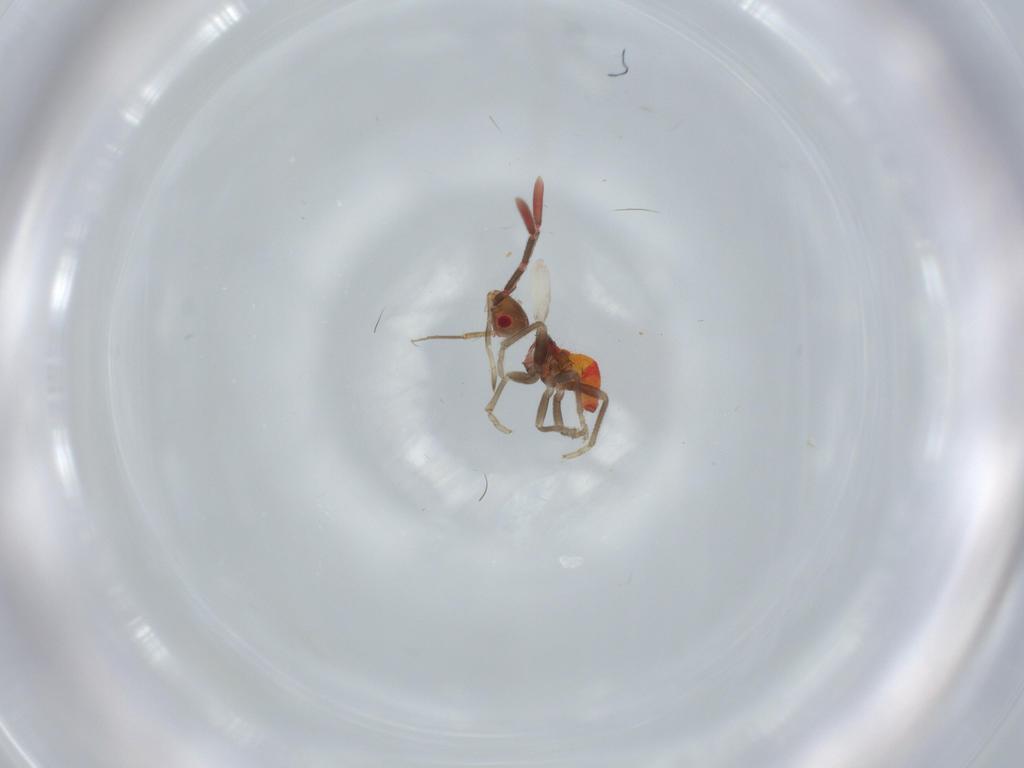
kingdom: Animalia
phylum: Arthropoda
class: Insecta
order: Hemiptera
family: Rhyparochromidae
